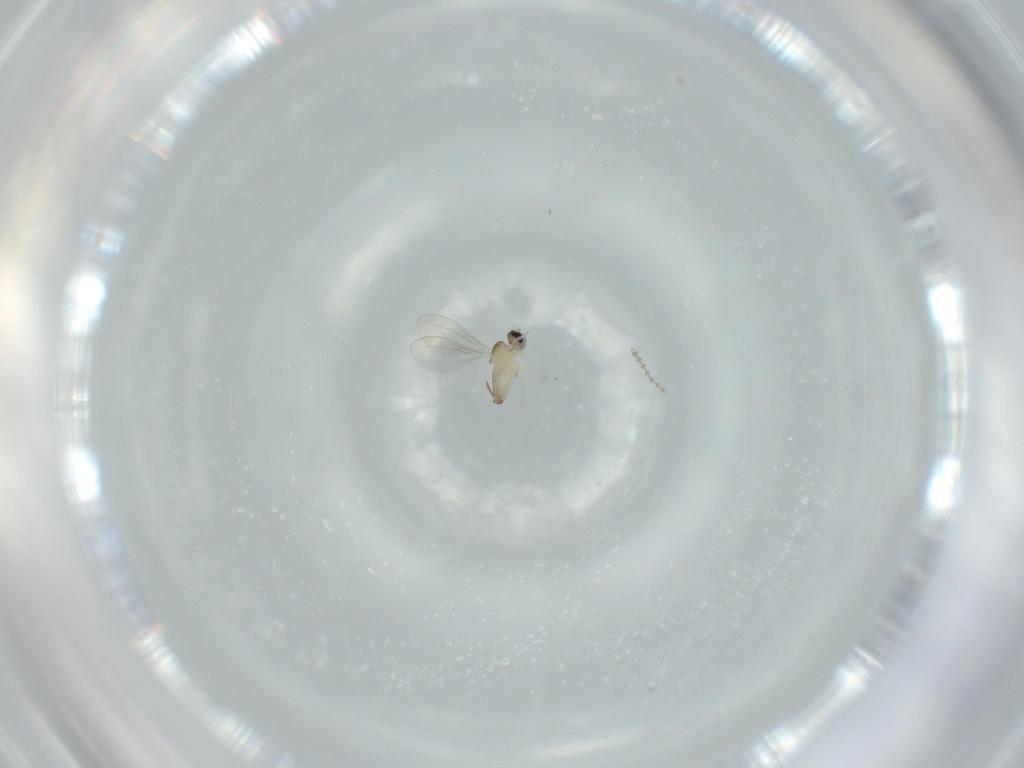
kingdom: Animalia
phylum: Arthropoda
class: Insecta
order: Diptera
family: Cecidomyiidae
